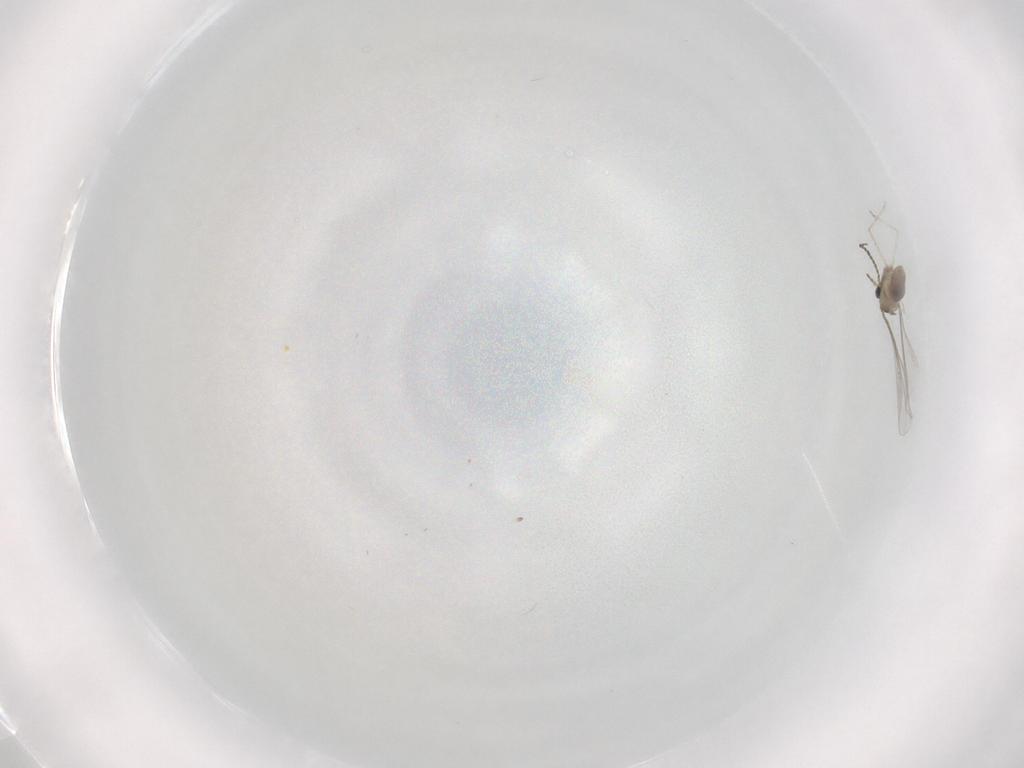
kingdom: Animalia
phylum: Arthropoda
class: Insecta
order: Diptera
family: Cecidomyiidae
